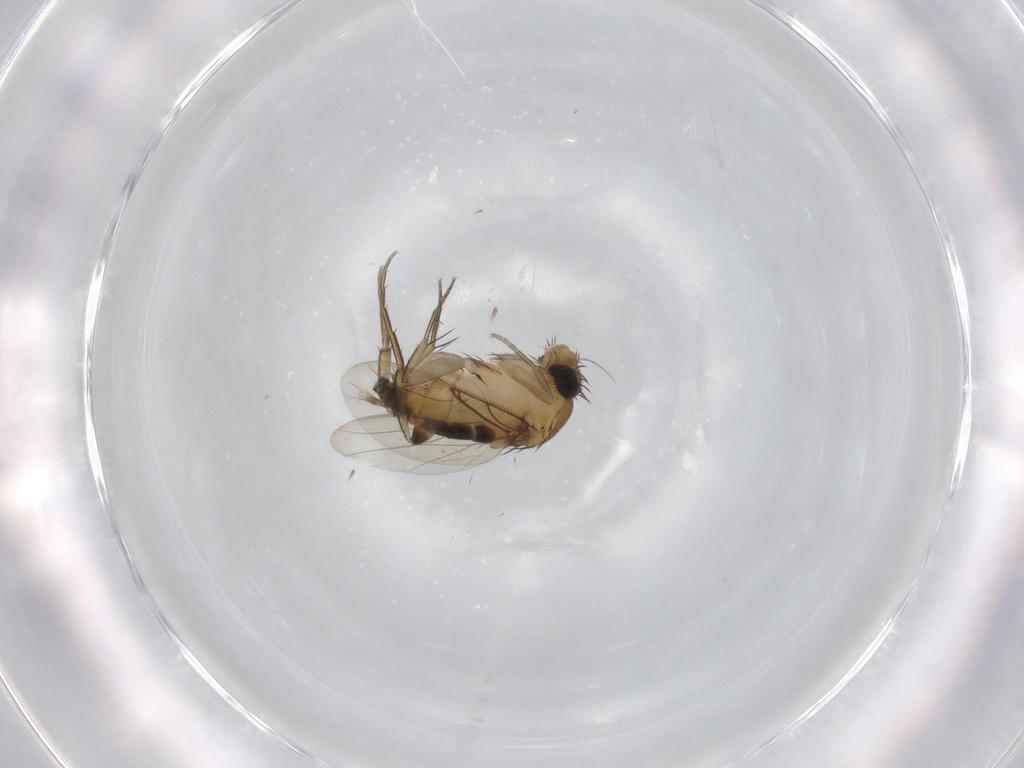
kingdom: Animalia
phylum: Arthropoda
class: Insecta
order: Diptera
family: Phoridae
